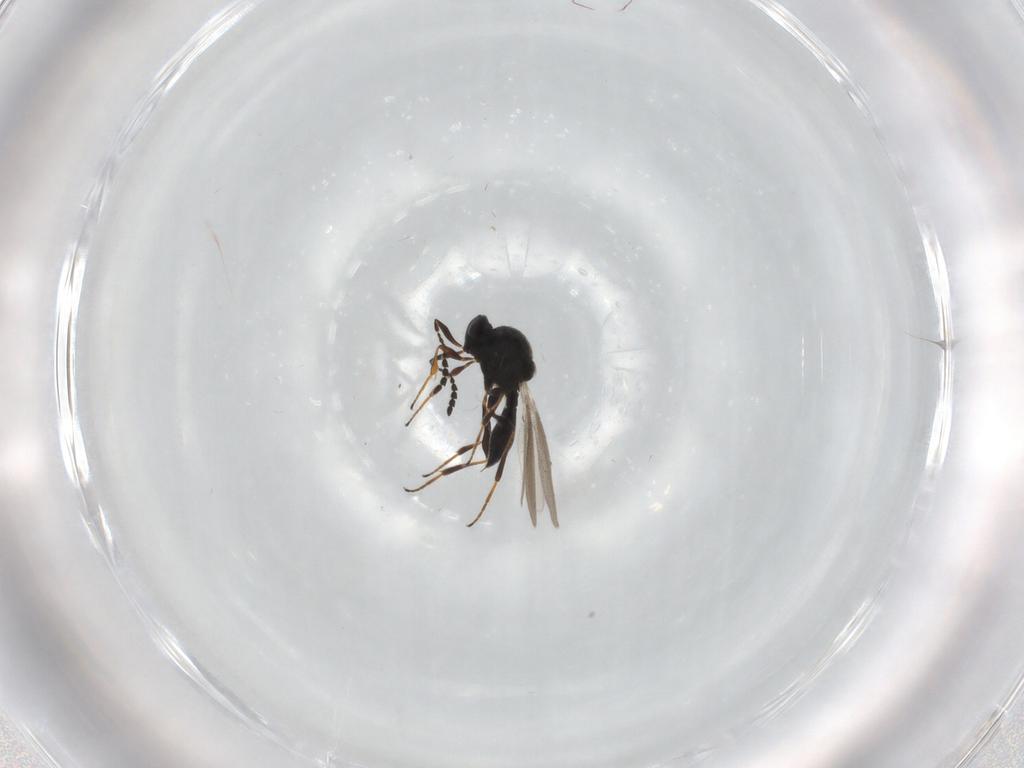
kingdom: Animalia
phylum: Arthropoda
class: Insecta
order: Hymenoptera
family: Platygastridae
